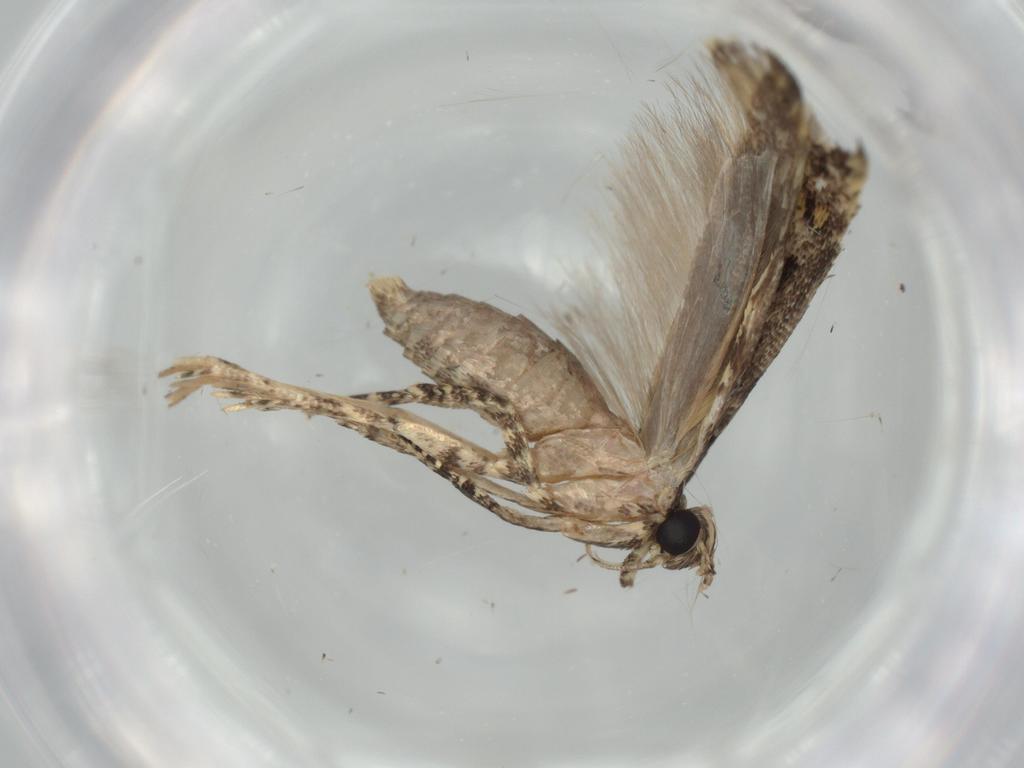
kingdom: Animalia
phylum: Arthropoda
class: Insecta
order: Lepidoptera
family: Gelechiidae
